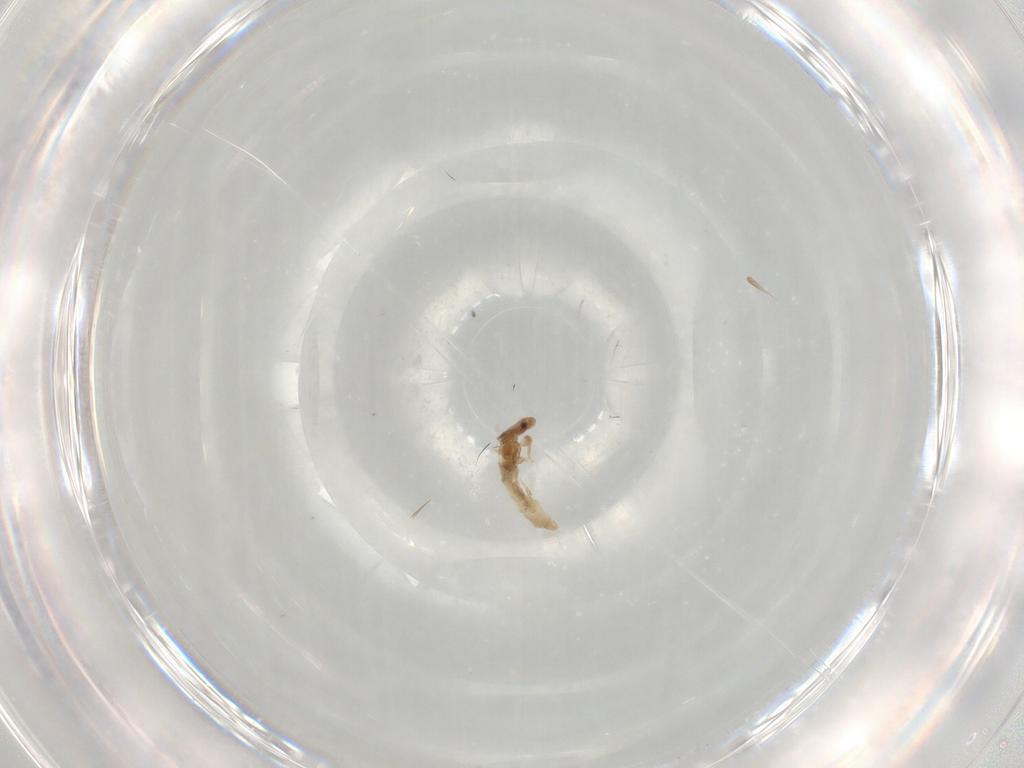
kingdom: Animalia
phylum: Arthropoda
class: Insecta
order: Psocodea
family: Liposcelididae
